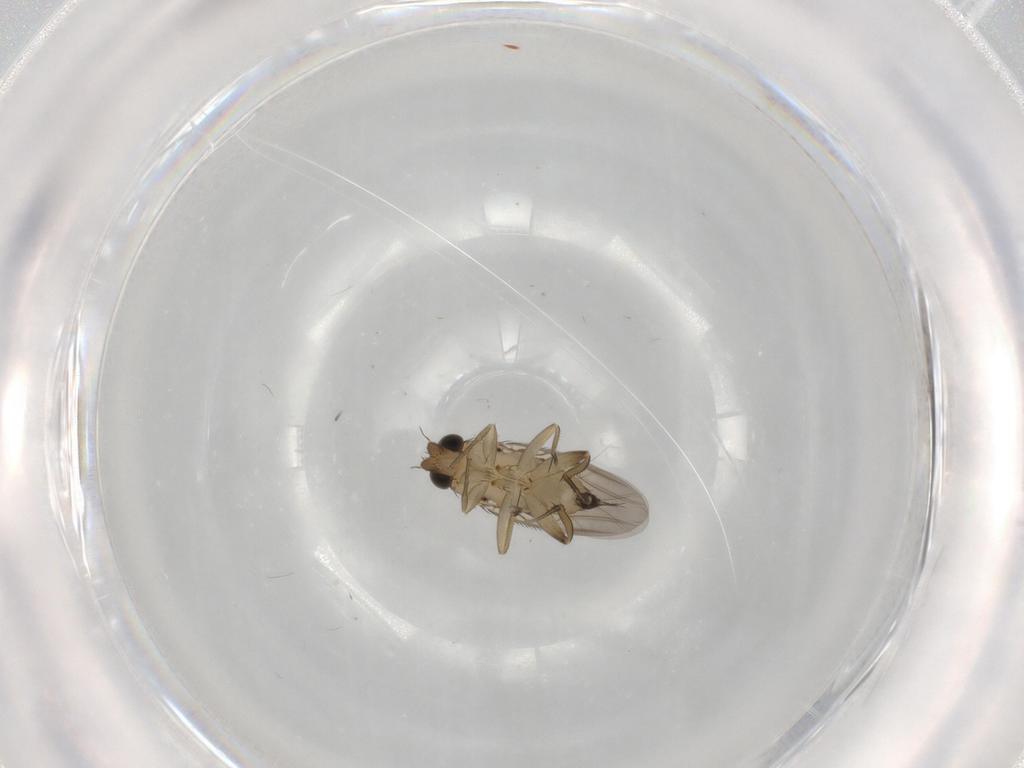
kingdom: Animalia
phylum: Arthropoda
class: Insecta
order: Diptera
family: Phoridae
